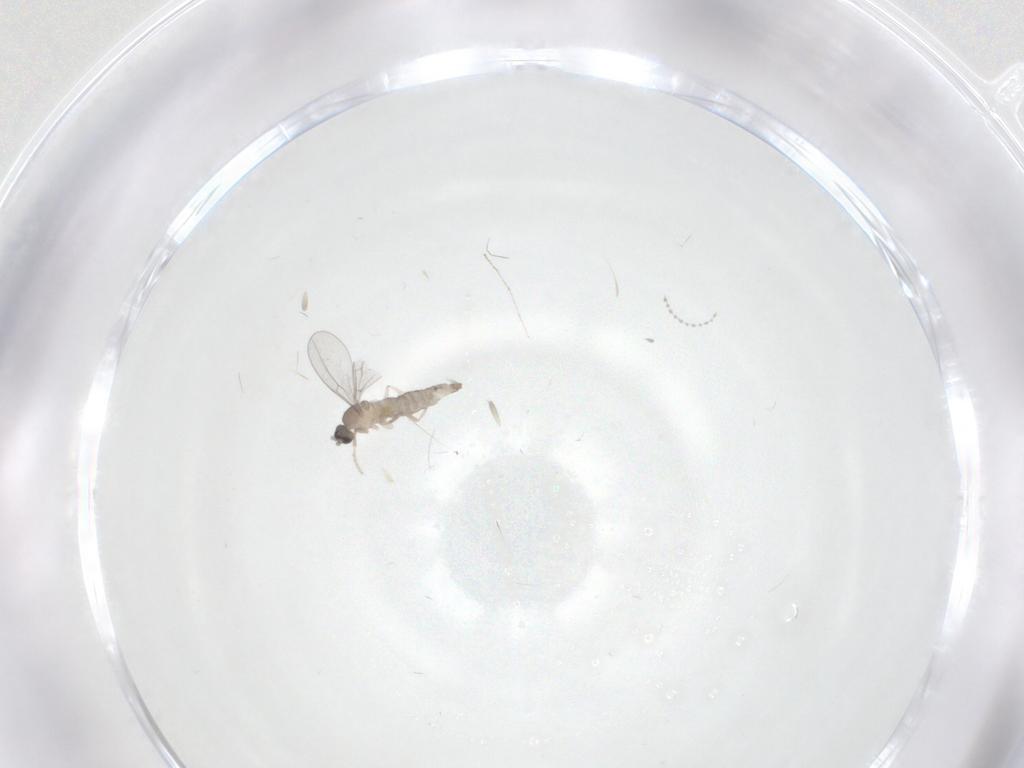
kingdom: Animalia
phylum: Arthropoda
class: Insecta
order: Diptera
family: Cecidomyiidae
